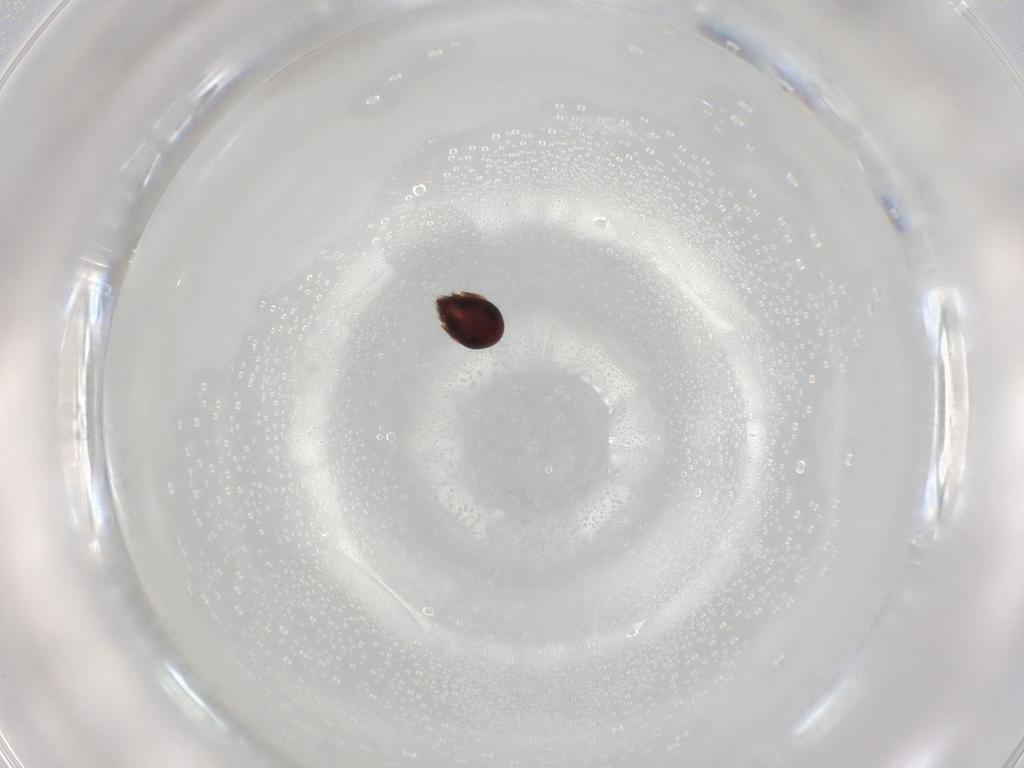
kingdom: Animalia
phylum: Arthropoda
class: Arachnida
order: Sarcoptiformes
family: Humerobatidae
